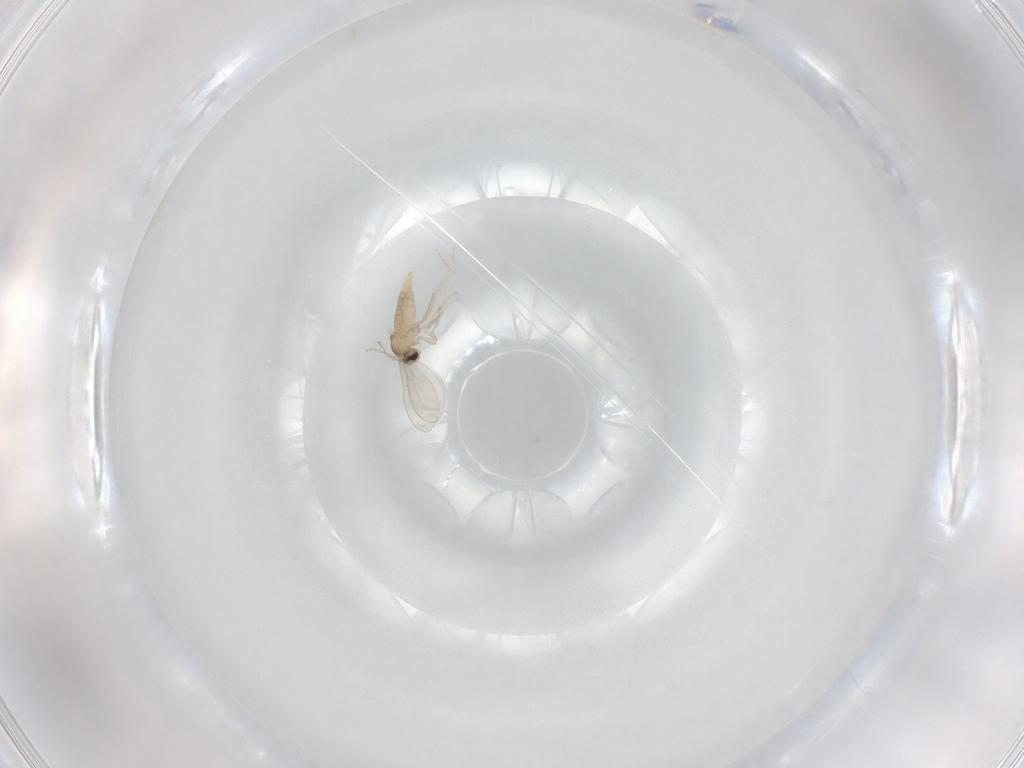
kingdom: Animalia
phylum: Arthropoda
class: Insecta
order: Diptera
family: Cecidomyiidae
